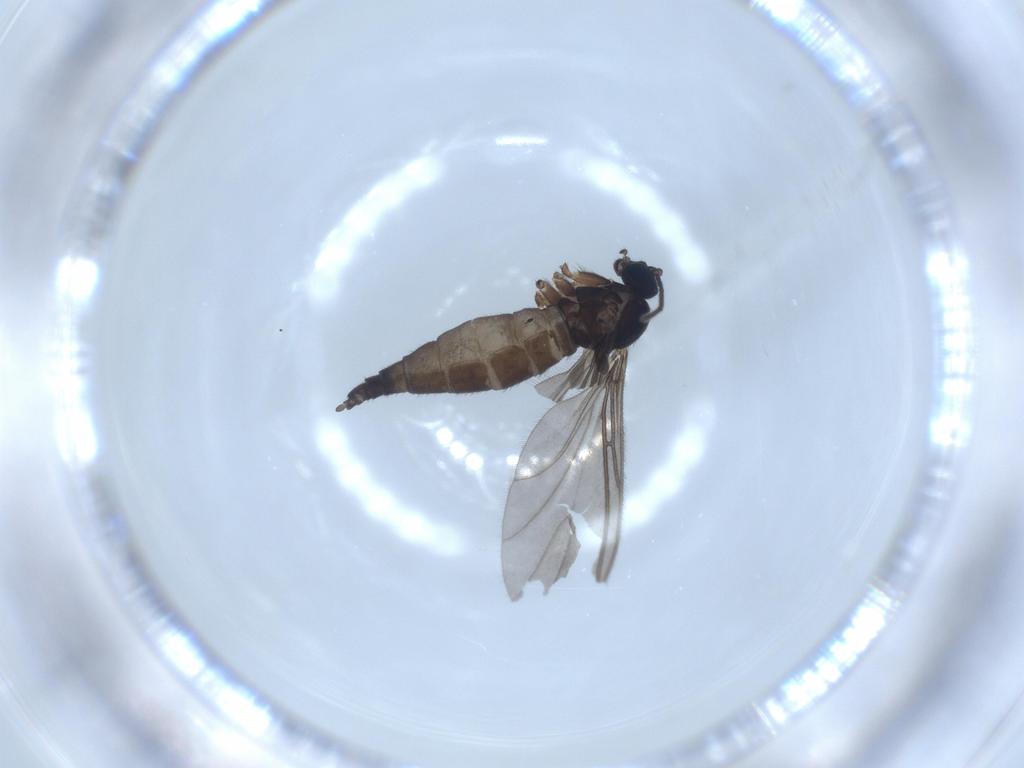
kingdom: Animalia
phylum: Arthropoda
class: Insecta
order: Diptera
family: Sciaridae
